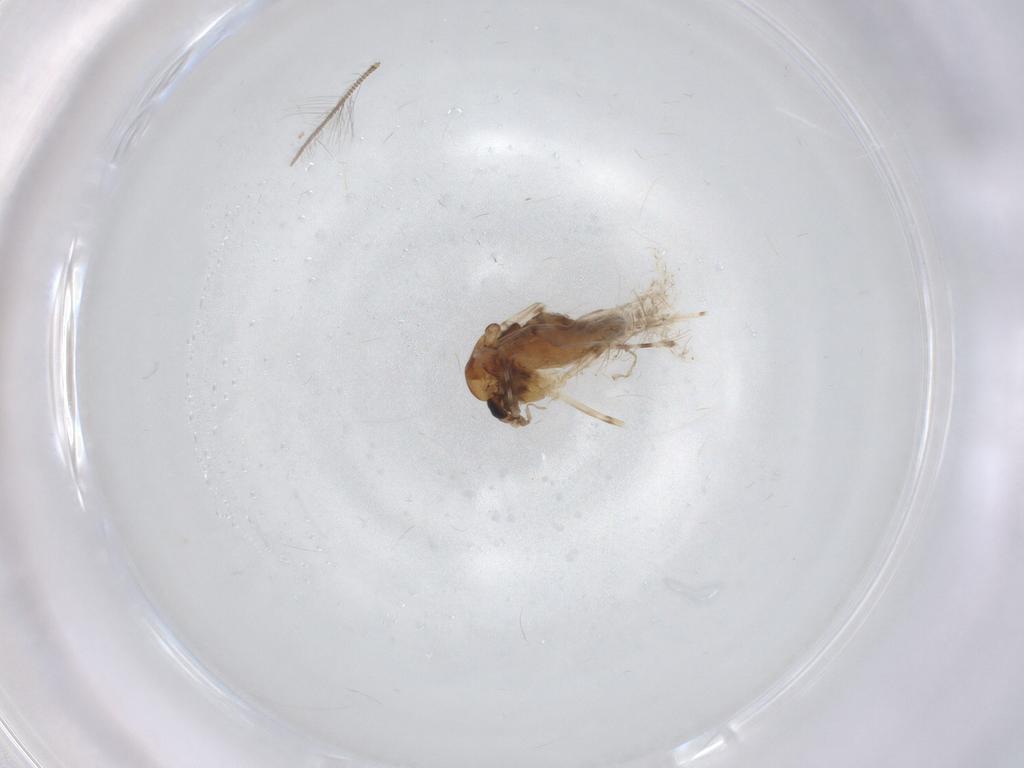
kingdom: Animalia
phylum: Arthropoda
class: Insecta
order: Diptera
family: Chironomidae
